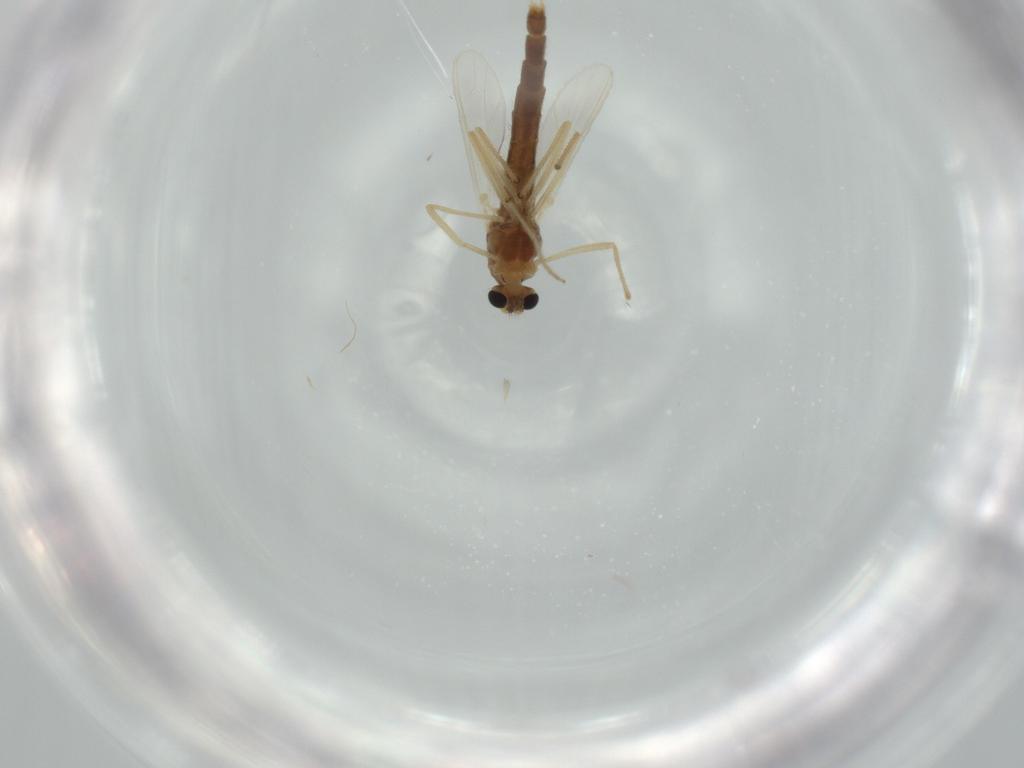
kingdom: Animalia
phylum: Arthropoda
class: Insecta
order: Diptera
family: Chironomidae
